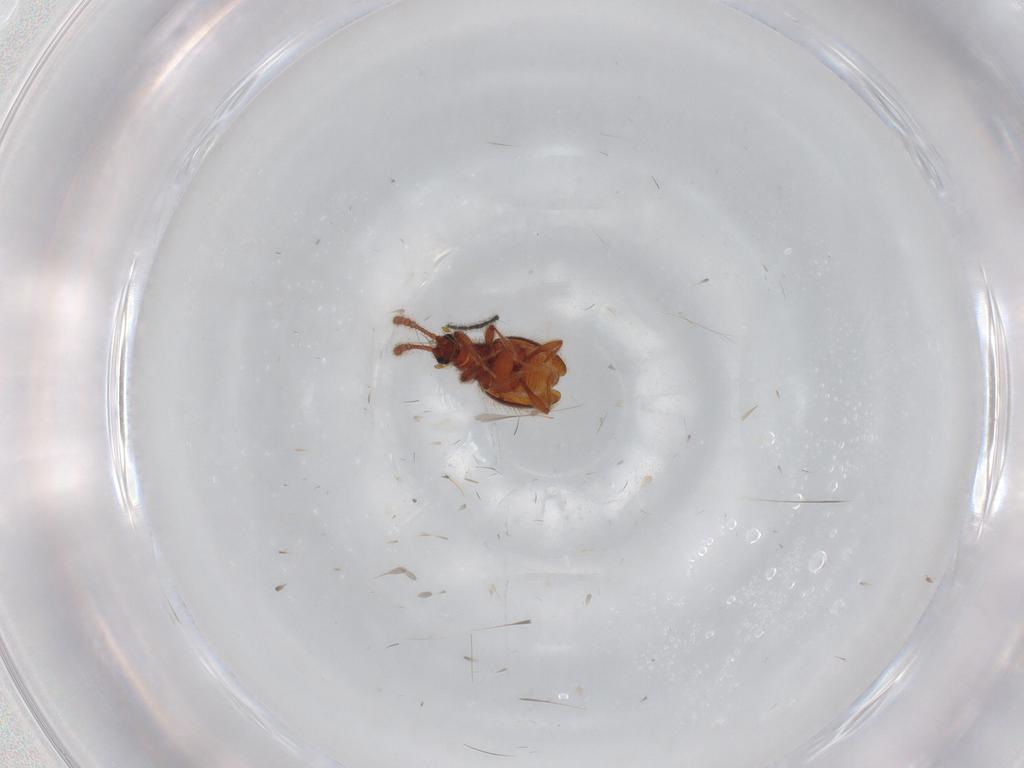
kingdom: Animalia
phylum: Arthropoda
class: Insecta
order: Coleoptera
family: Staphylinidae
